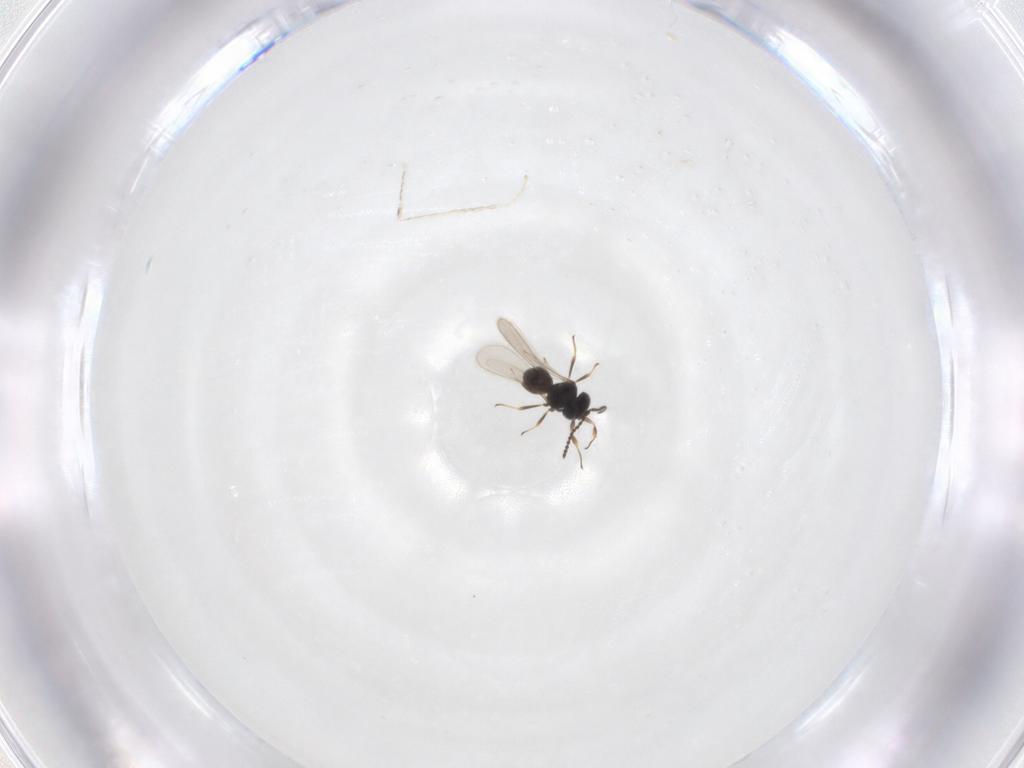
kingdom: Animalia
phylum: Arthropoda
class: Insecta
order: Hymenoptera
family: Scelionidae
